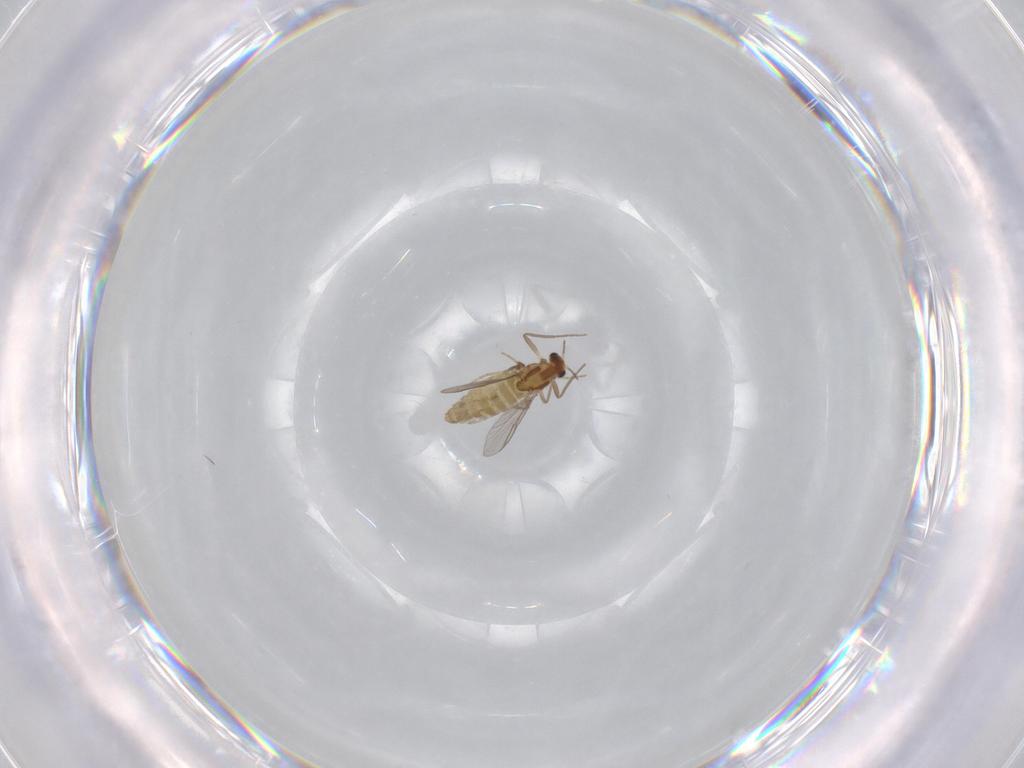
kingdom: Animalia
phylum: Arthropoda
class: Insecta
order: Diptera
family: Chironomidae
